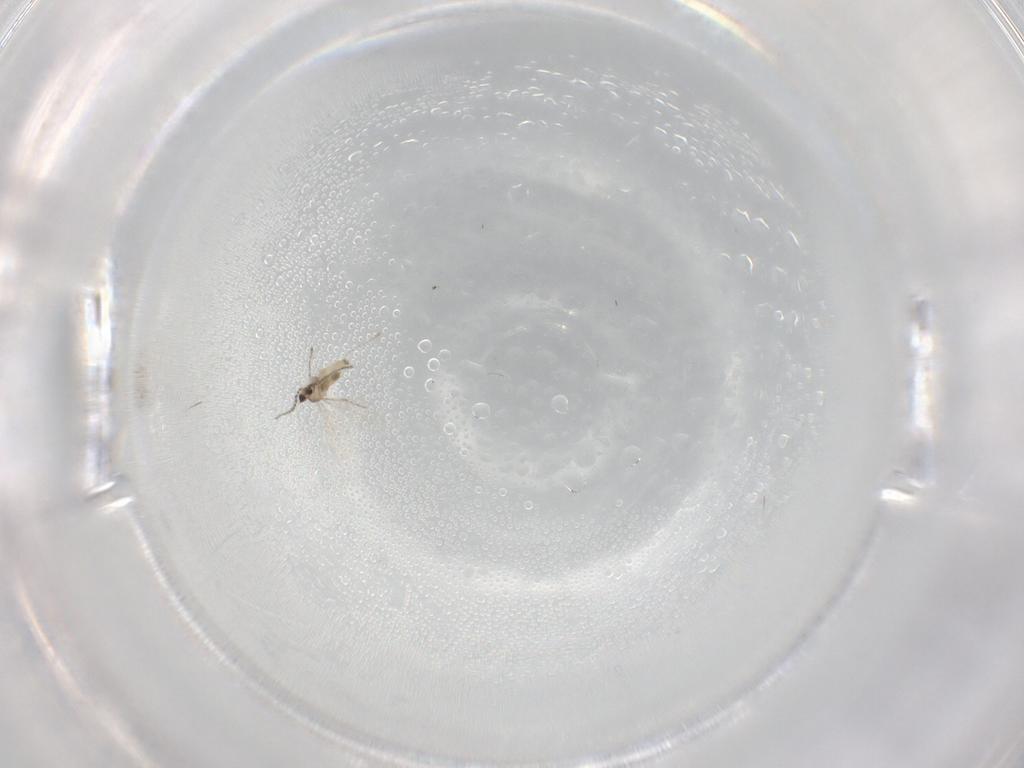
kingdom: Animalia
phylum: Arthropoda
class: Insecta
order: Diptera
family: Cecidomyiidae
